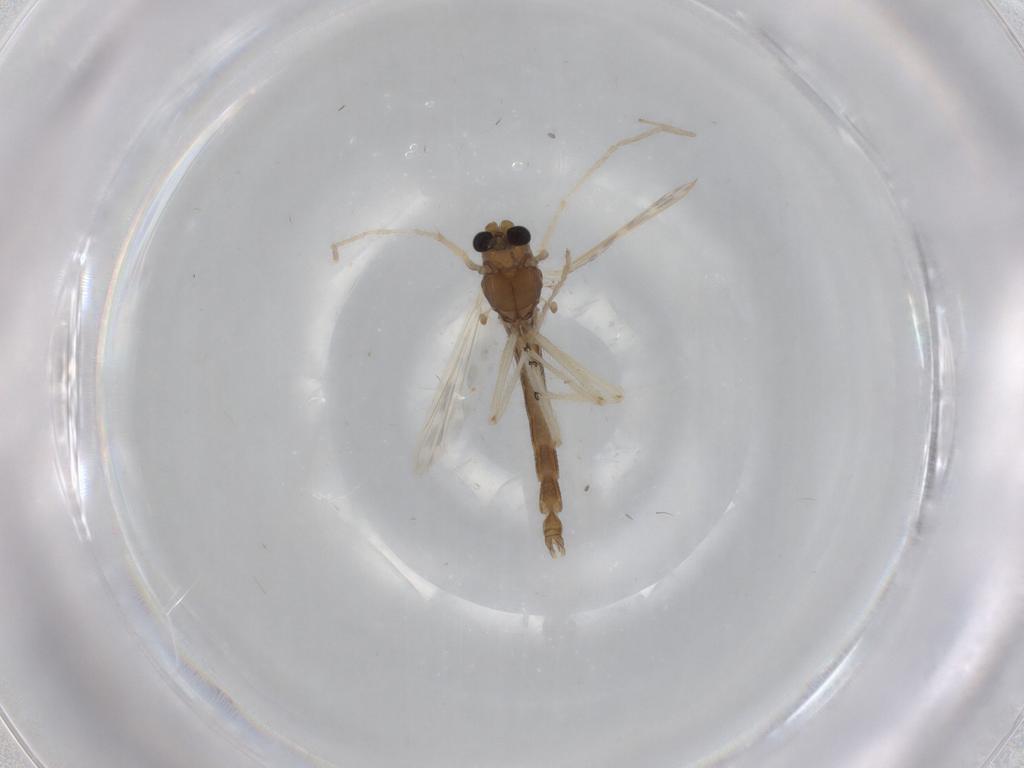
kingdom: Animalia
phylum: Arthropoda
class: Insecta
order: Diptera
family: Chironomidae
